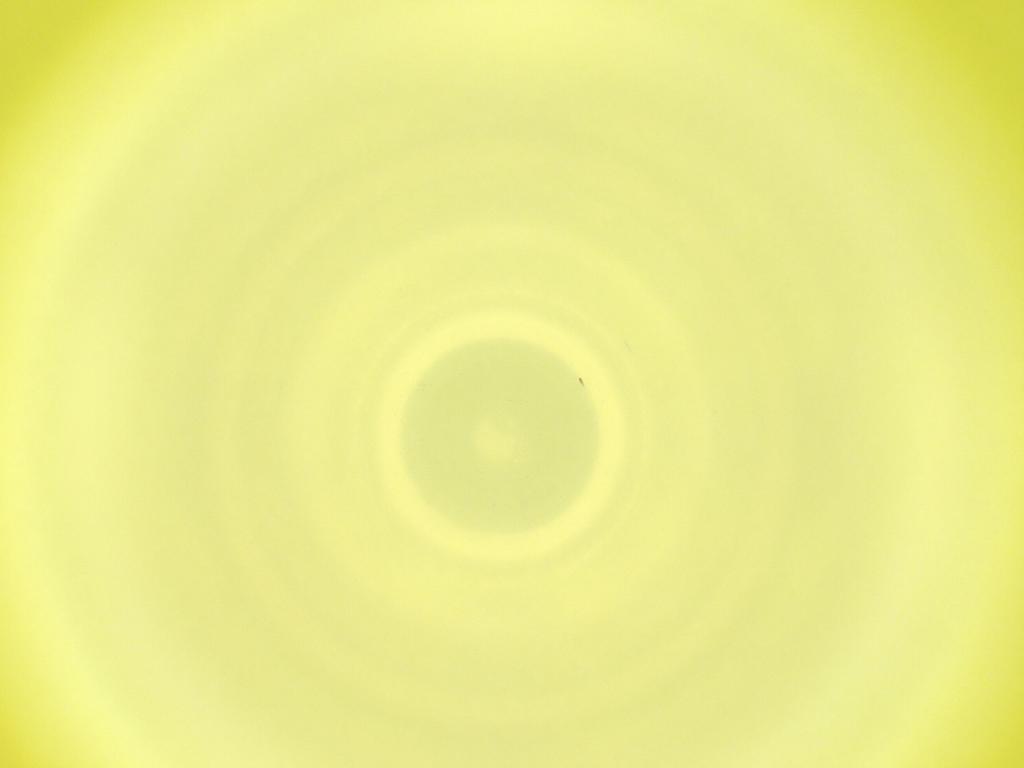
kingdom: Animalia
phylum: Arthropoda
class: Insecta
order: Diptera
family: Cecidomyiidae
